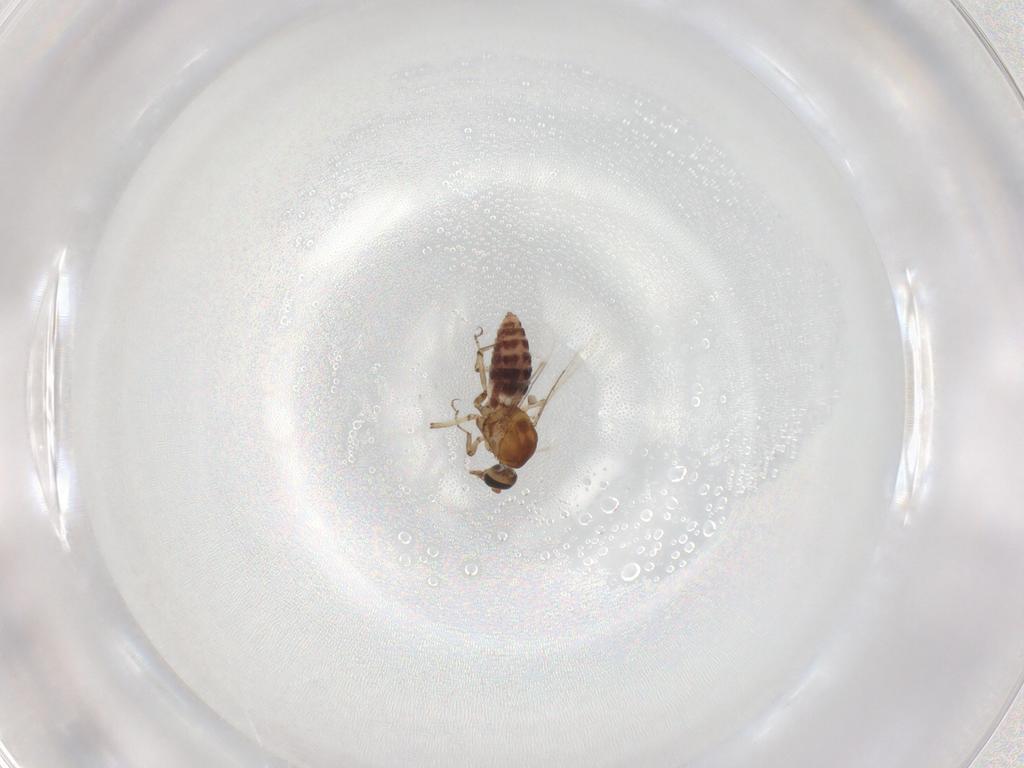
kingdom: Animalia
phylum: Arthropoda
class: Insecta
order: Diptera
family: Ceratopogonidae
